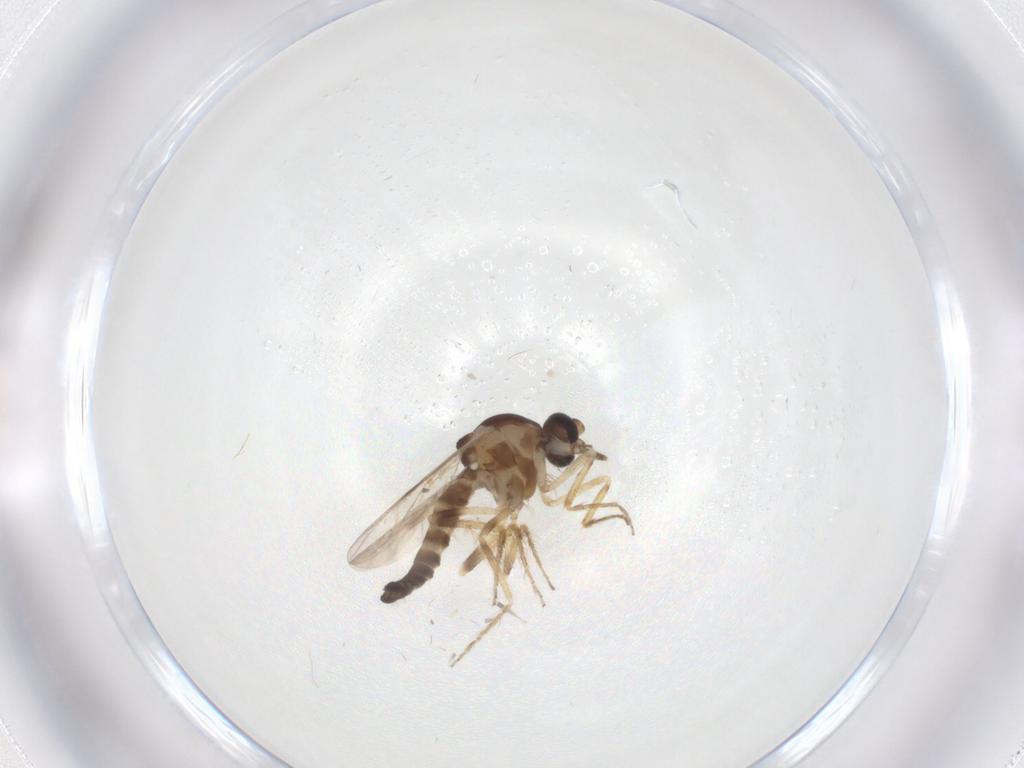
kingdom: Animalia
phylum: Arthropoda
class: Insecta
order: Diptera
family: Ceratopogonidae
